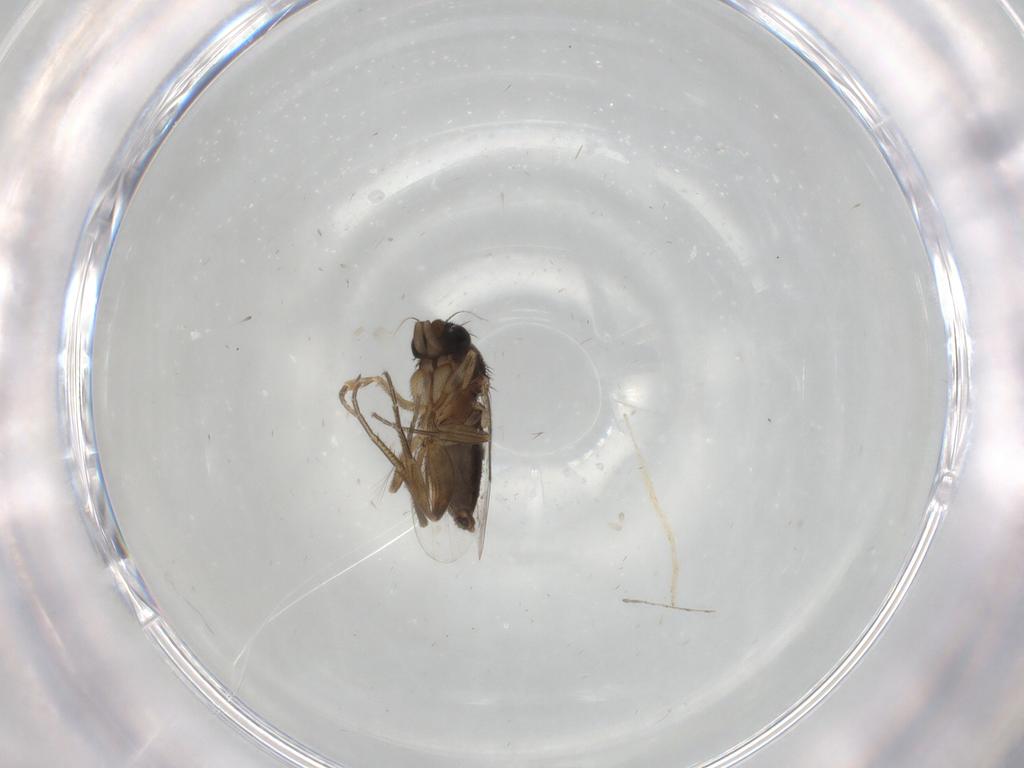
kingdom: Animalia
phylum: Arthropoda
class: Insecta
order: Diptera
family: Phoridae
